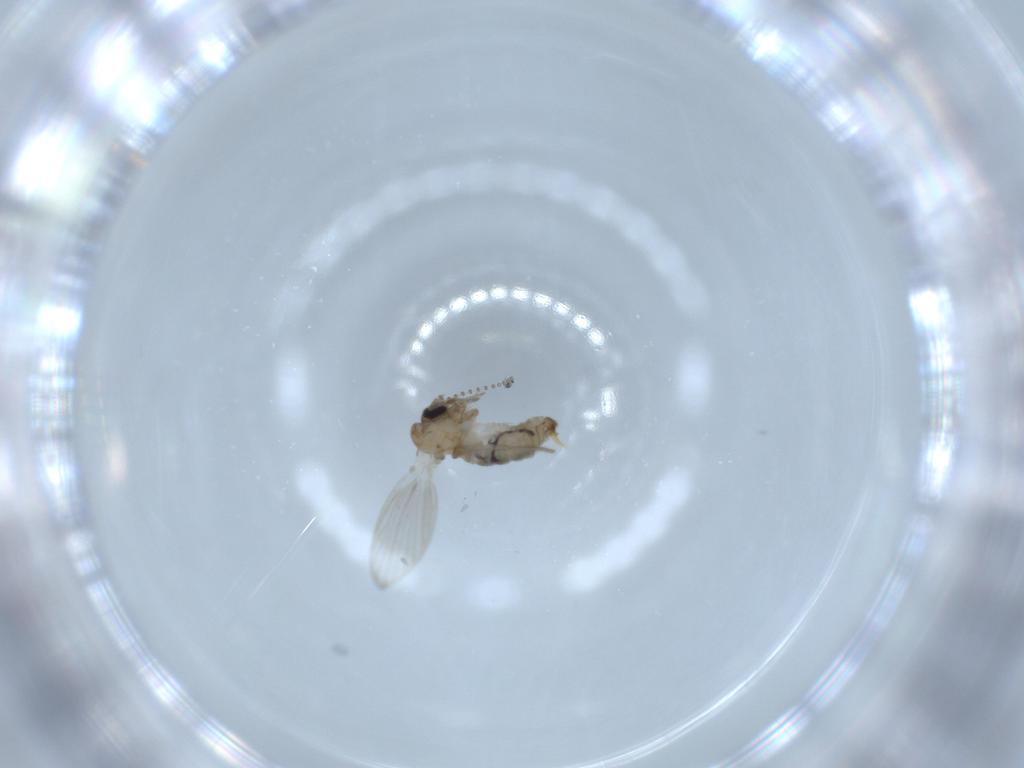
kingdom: Animalia
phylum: Arthropoda
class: Insecta
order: Diptera
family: Psychodidae
